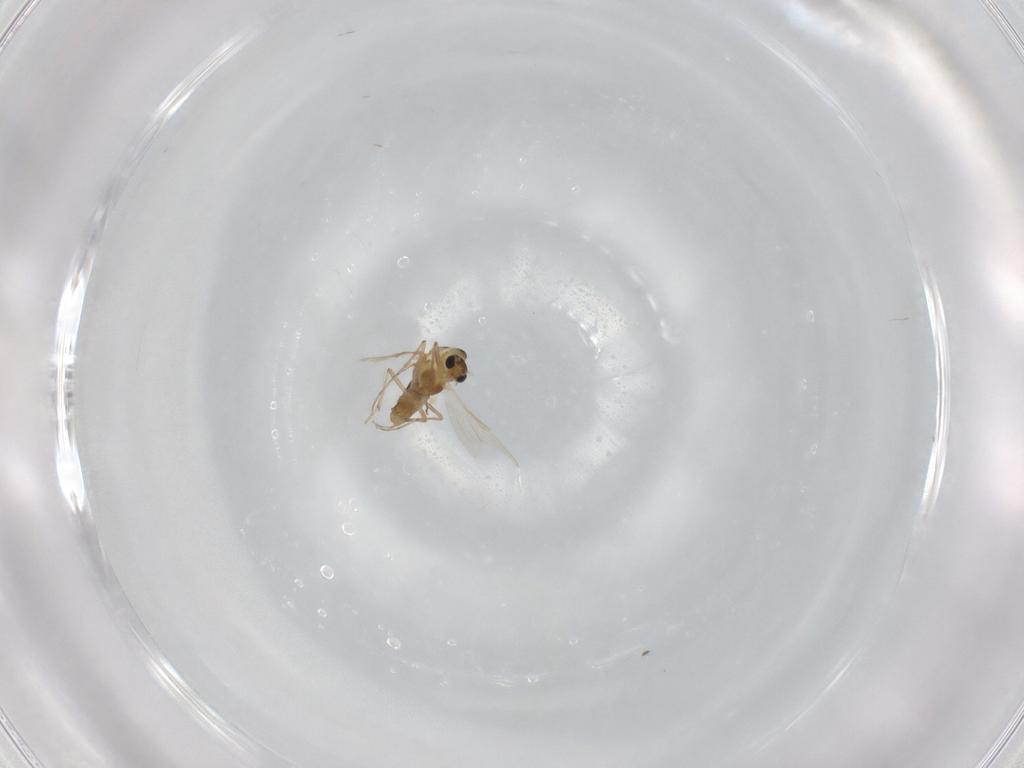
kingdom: Animalia
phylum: Arthropoda
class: Insecta
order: Diptera
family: Chironomidae
